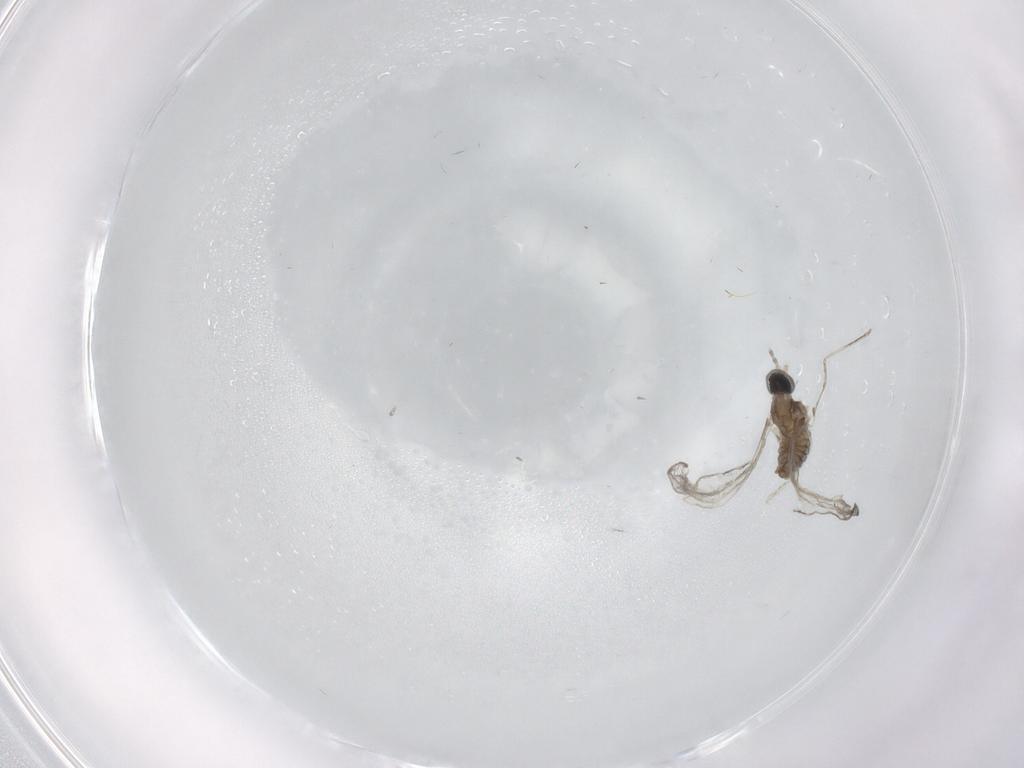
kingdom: Animalia
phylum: Arthropoda
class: Insecta
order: Diptera
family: Cecidomyiidae
